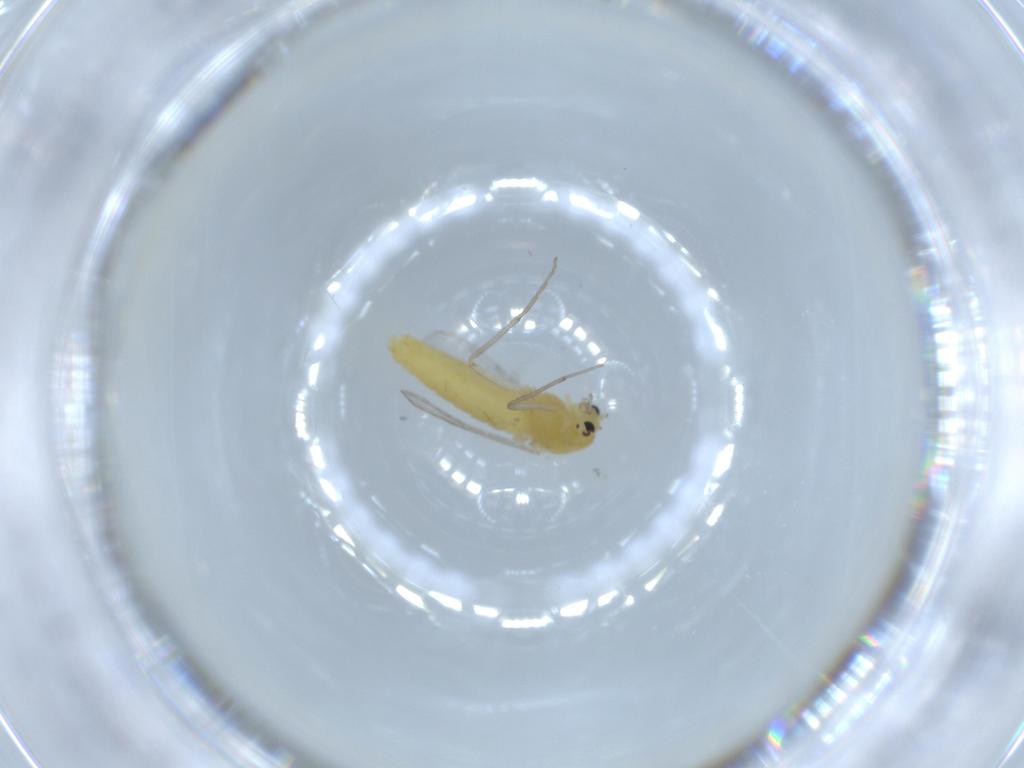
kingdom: Animalia
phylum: Arthropoda
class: Insecta
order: Diptera
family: Chironomidae
